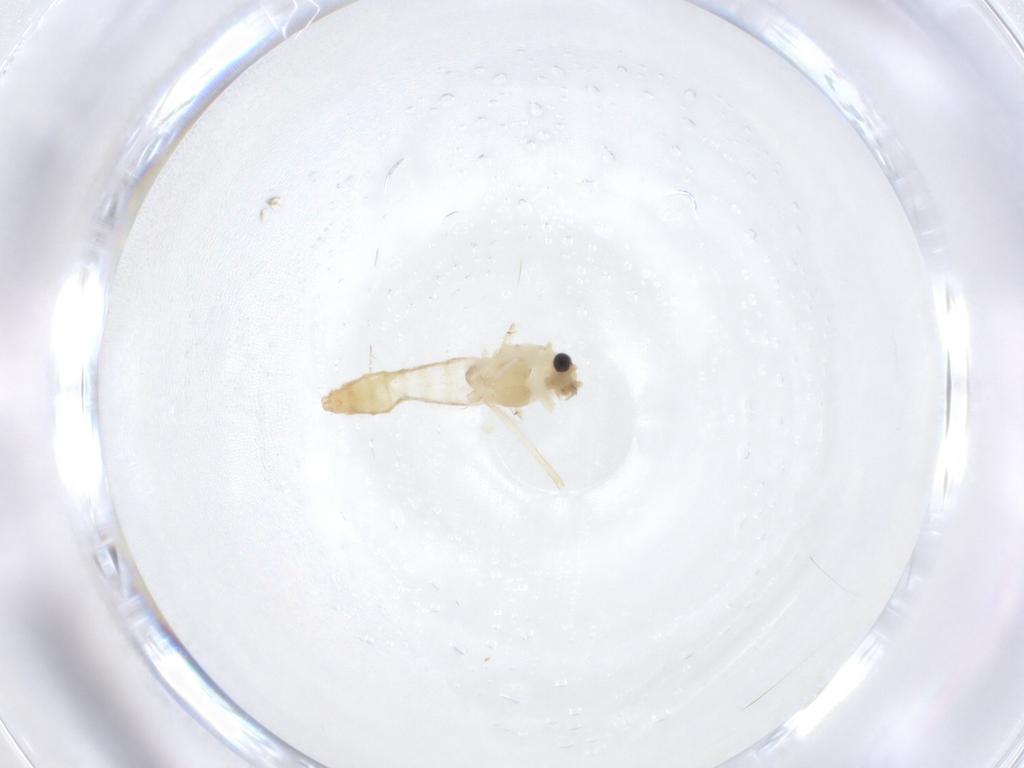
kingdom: Animalia
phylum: Arthropoda
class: Insecta
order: Diptera
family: Chironomidae
